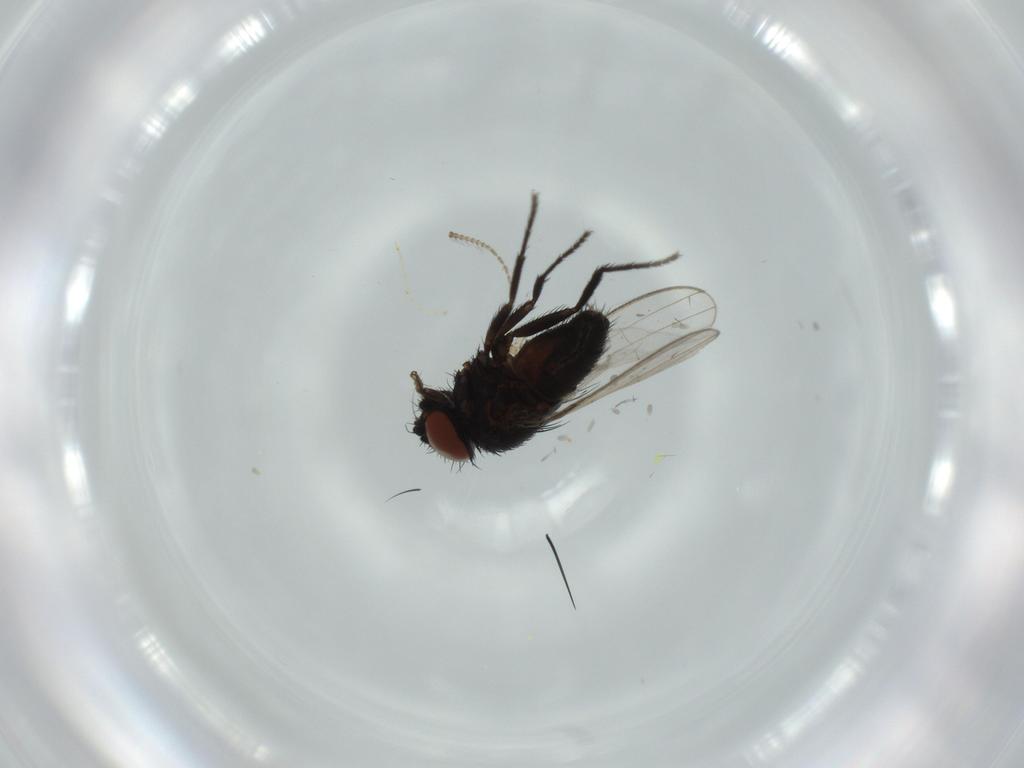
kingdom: Animalia
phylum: Arthropoda
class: Insecta
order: Diptera
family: Milichiidae
